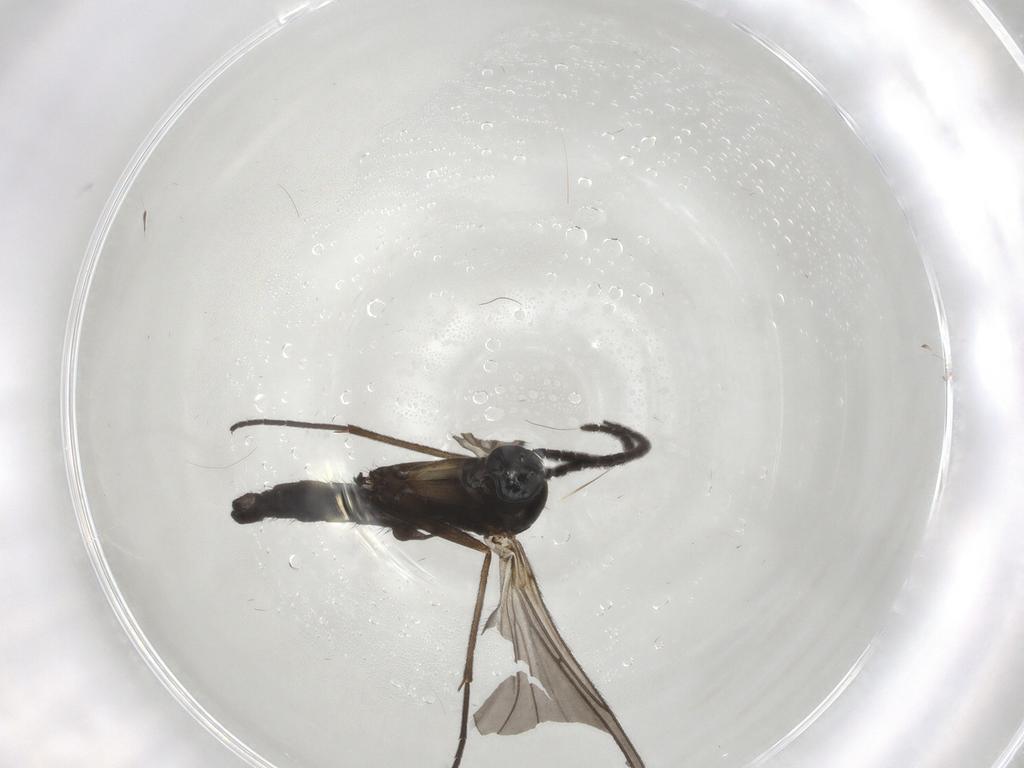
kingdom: Animalia
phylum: Arthropoda
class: Insecta
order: Diptera
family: Sciaridae
